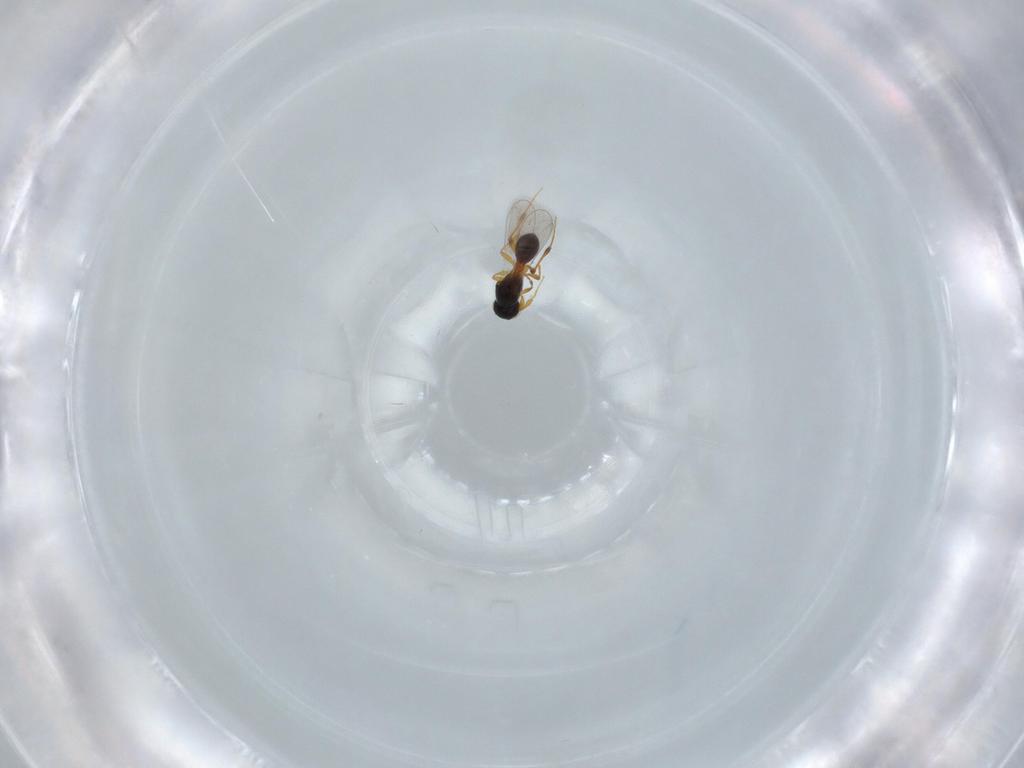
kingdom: Animalia
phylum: Arthropoda
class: Insecta
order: Hymenoptera
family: Platygastridae
